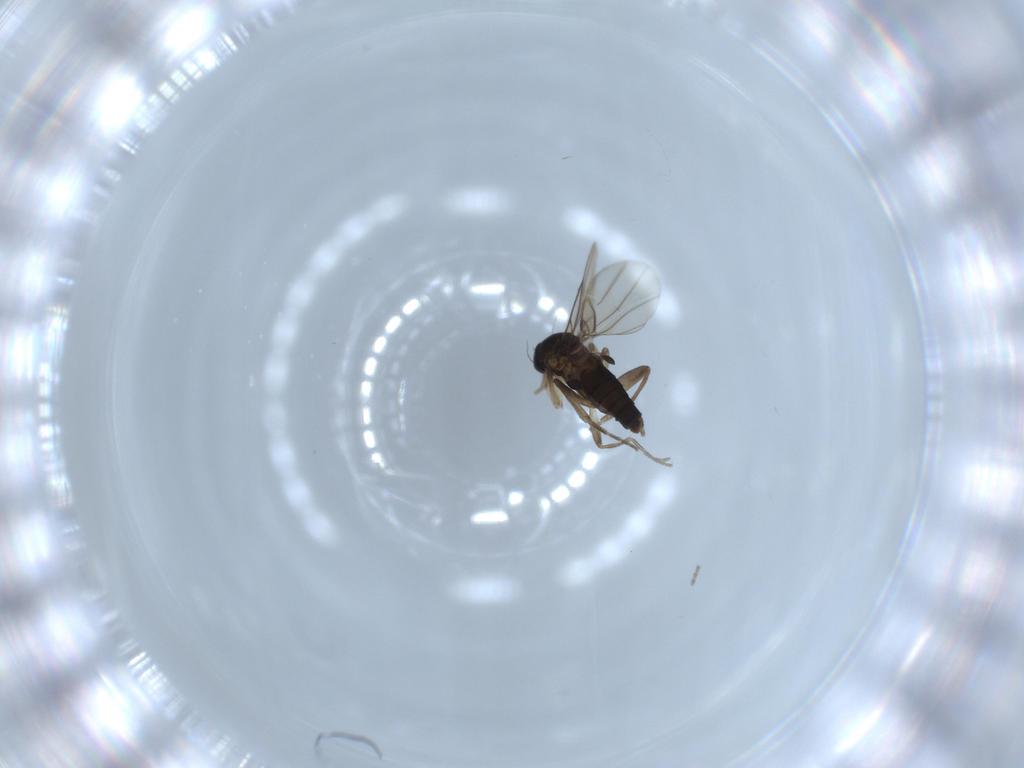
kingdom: Animalia
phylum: Arthropoda
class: Insecta
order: Diptera
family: Phoridae
